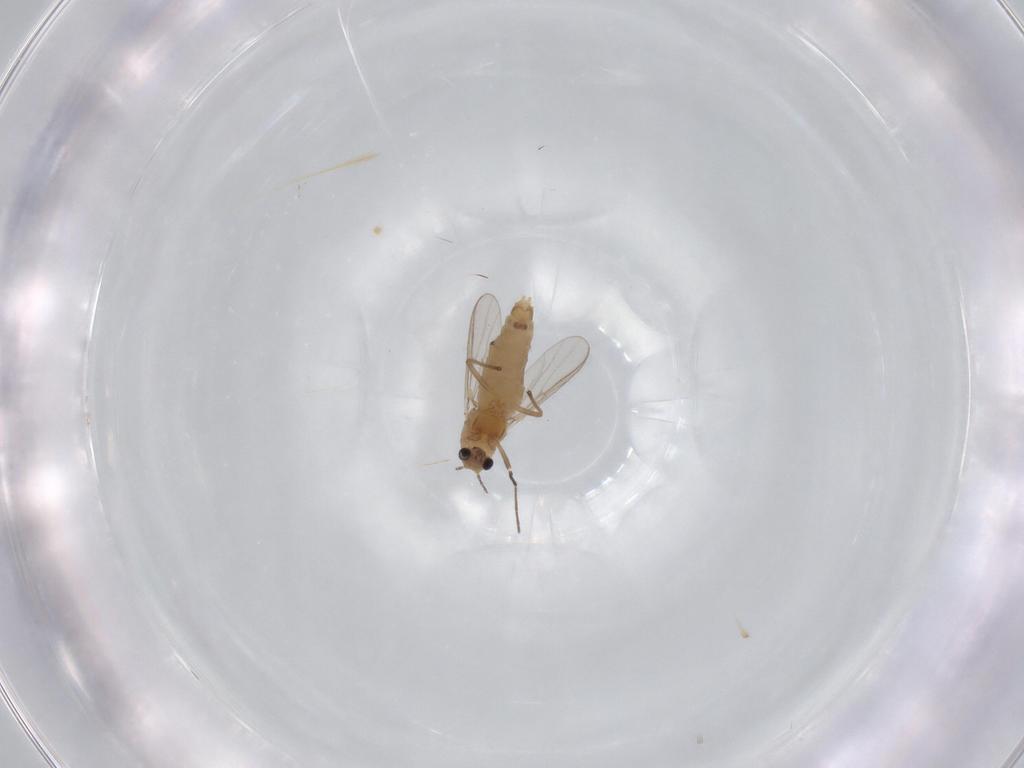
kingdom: Animalia
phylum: Arthropoda
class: Insecta
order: Diptera
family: Chironomidae
